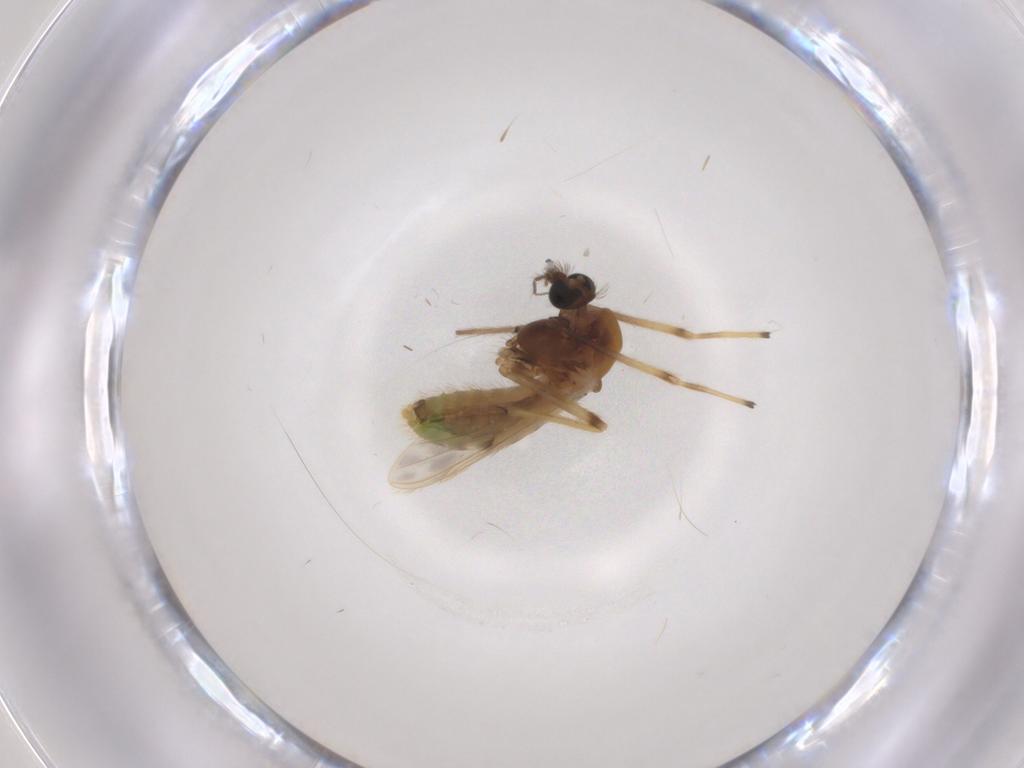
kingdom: Animalia
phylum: Arthropoda
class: Insecta
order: Diptera
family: Chironomidae
